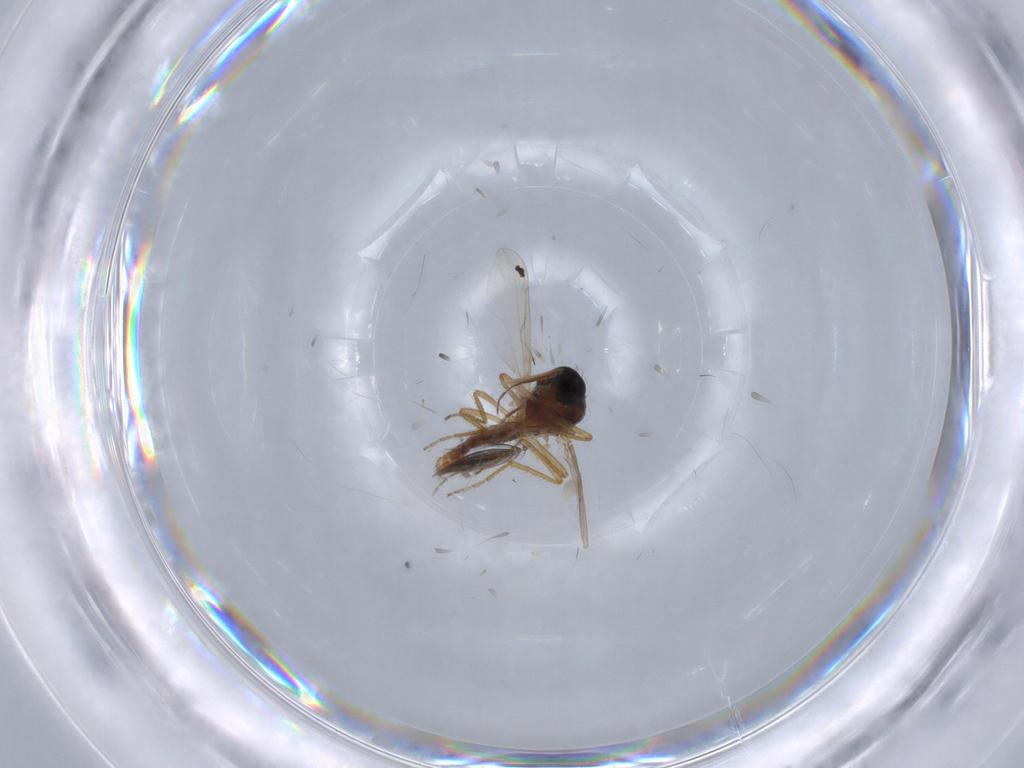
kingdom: Animalia
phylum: Arthropoda
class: Insecta
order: Diptera
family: Ceratopogonidae
